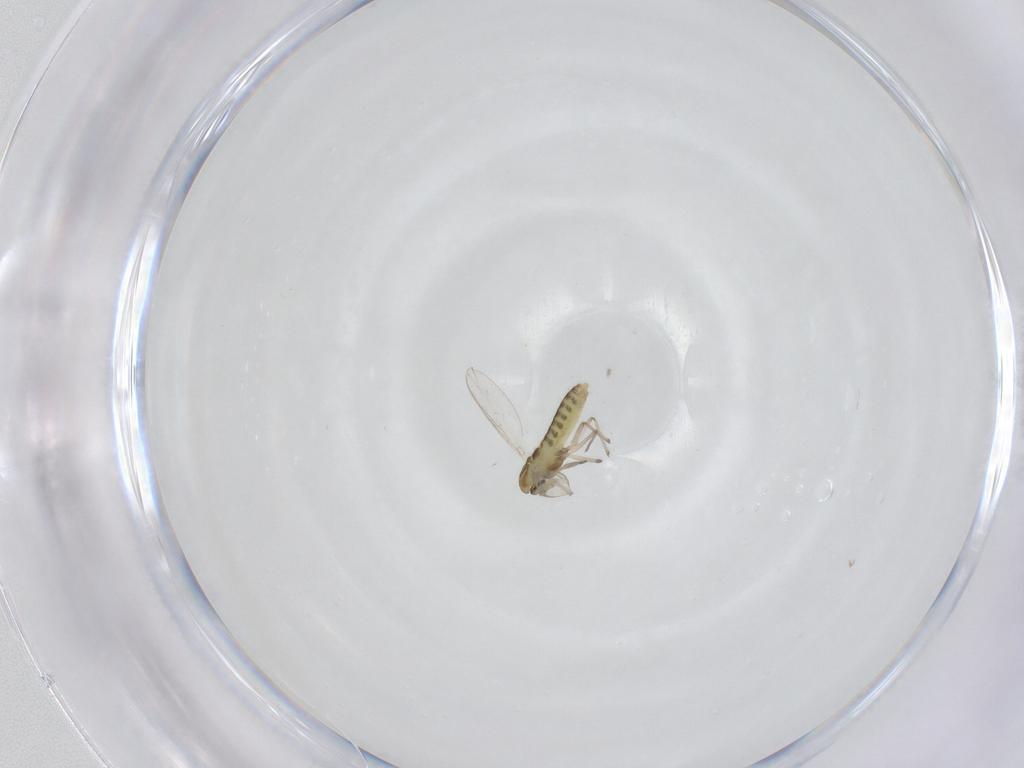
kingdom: Animalia
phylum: Arthropoda
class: Insecta
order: Diptera
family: Chironomidae
